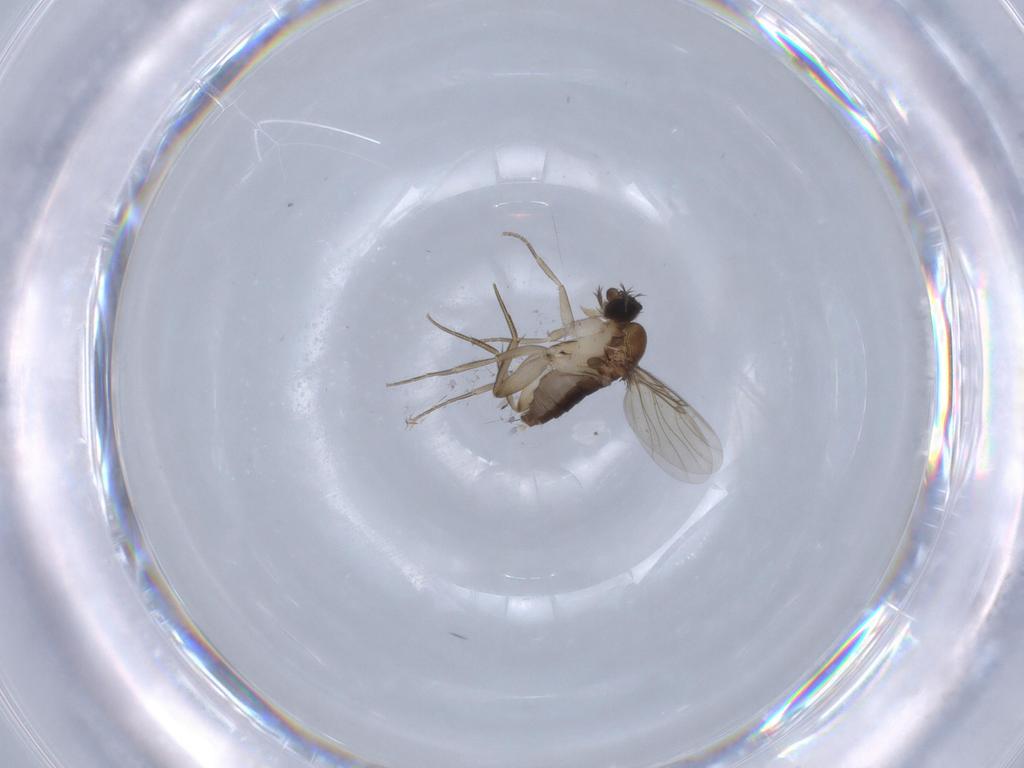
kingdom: Animalia
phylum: Arthropoda
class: Insecta
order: Diptera
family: Phoridae
